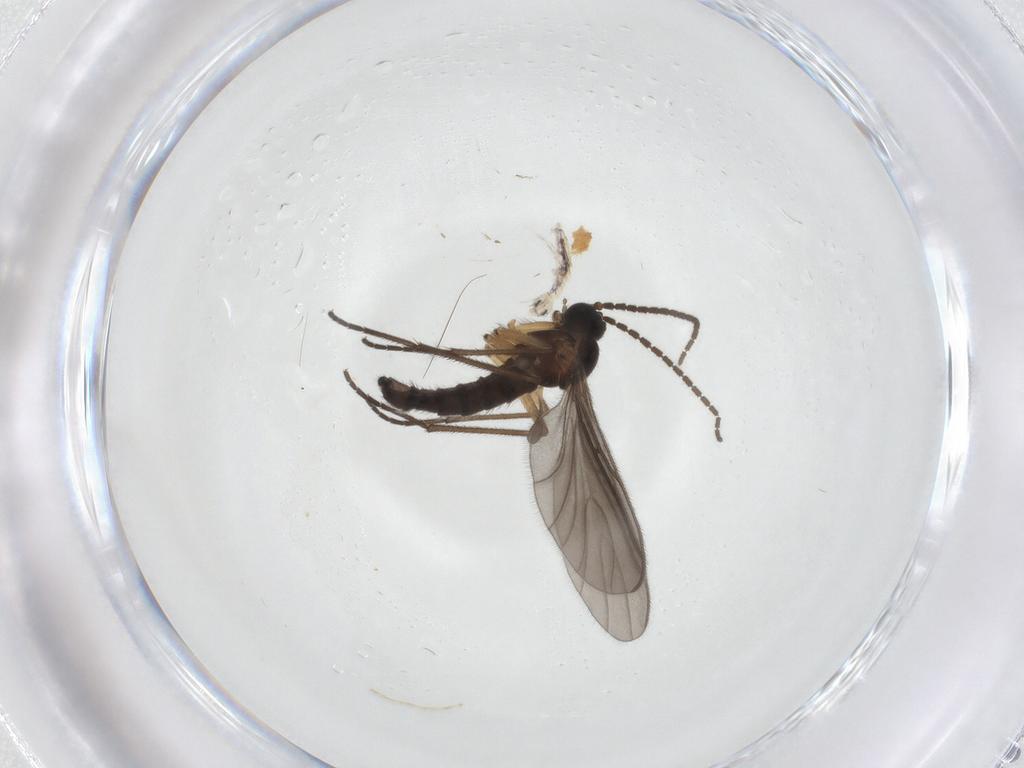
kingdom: Animalia
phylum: Arthropoda
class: Insecta
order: Diptera
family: Sciaridae
